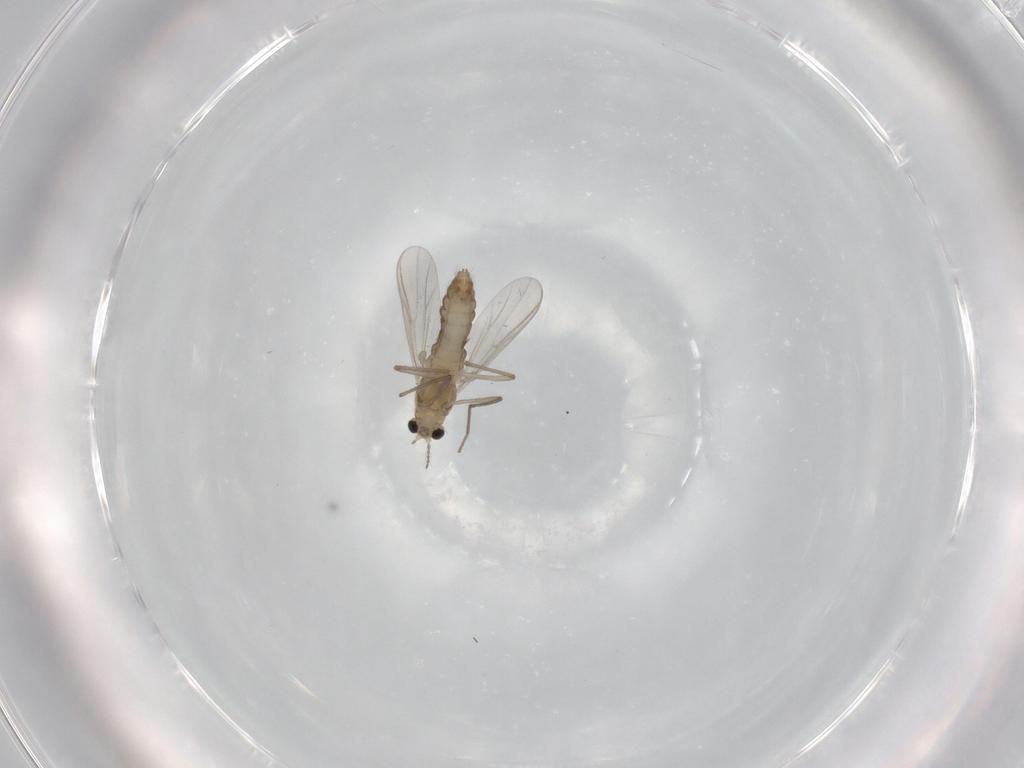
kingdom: Animalia
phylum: Arthropoda
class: Insecta
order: Diptera
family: Chironomidae
